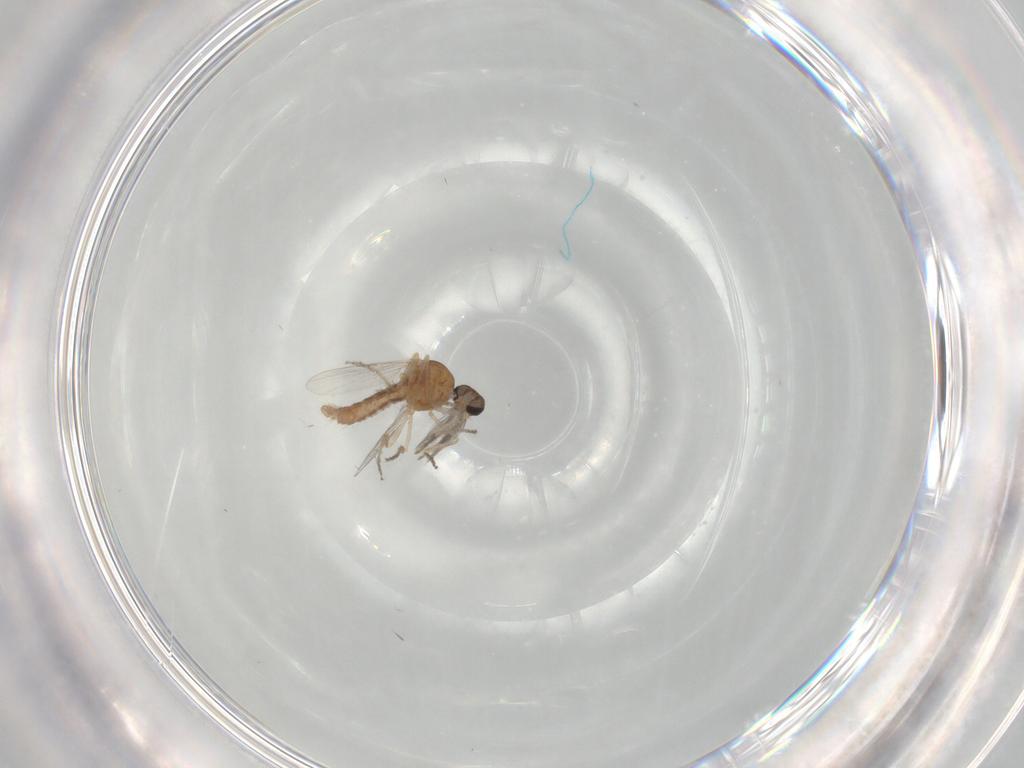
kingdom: Animalia
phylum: Arthropoda
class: Insecta
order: Diptera
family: Ceratopogonidae
